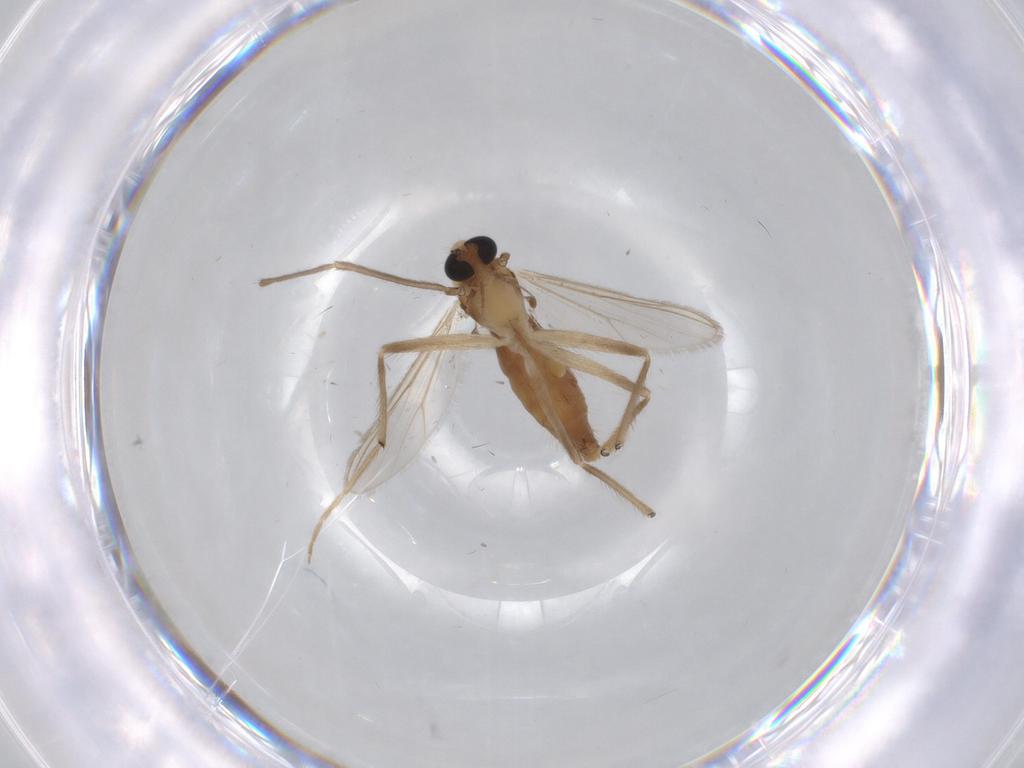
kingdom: Animalia
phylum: Arthropoda
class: Insecta
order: Diptera
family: Chironomidae
